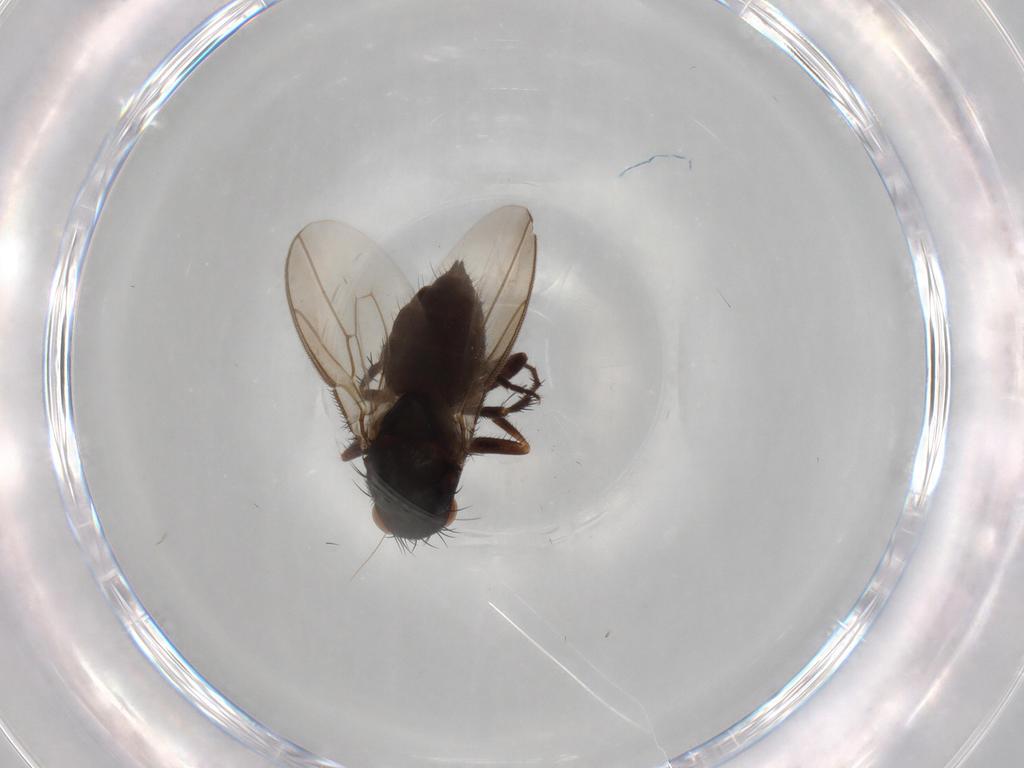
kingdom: Animalia
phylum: Arthropoda
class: Insecta
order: Diptera
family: Sphaeroceridae
